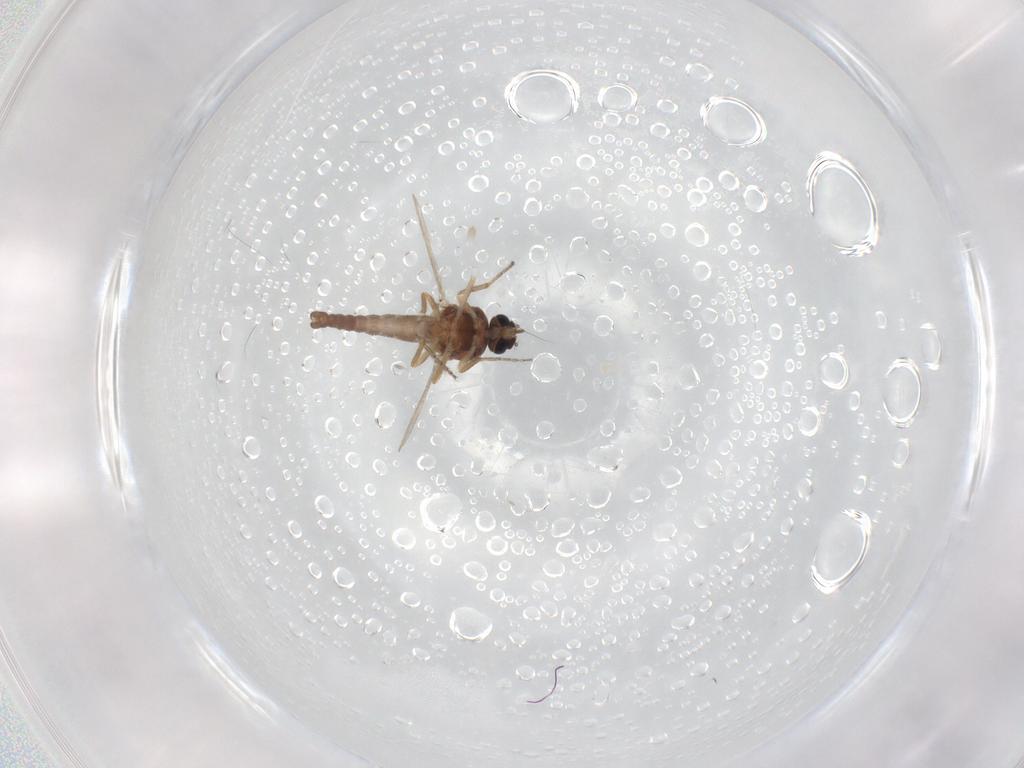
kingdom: Animalia
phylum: Arthropoda
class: Insecta
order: Diptera
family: Ceratopogonidae
